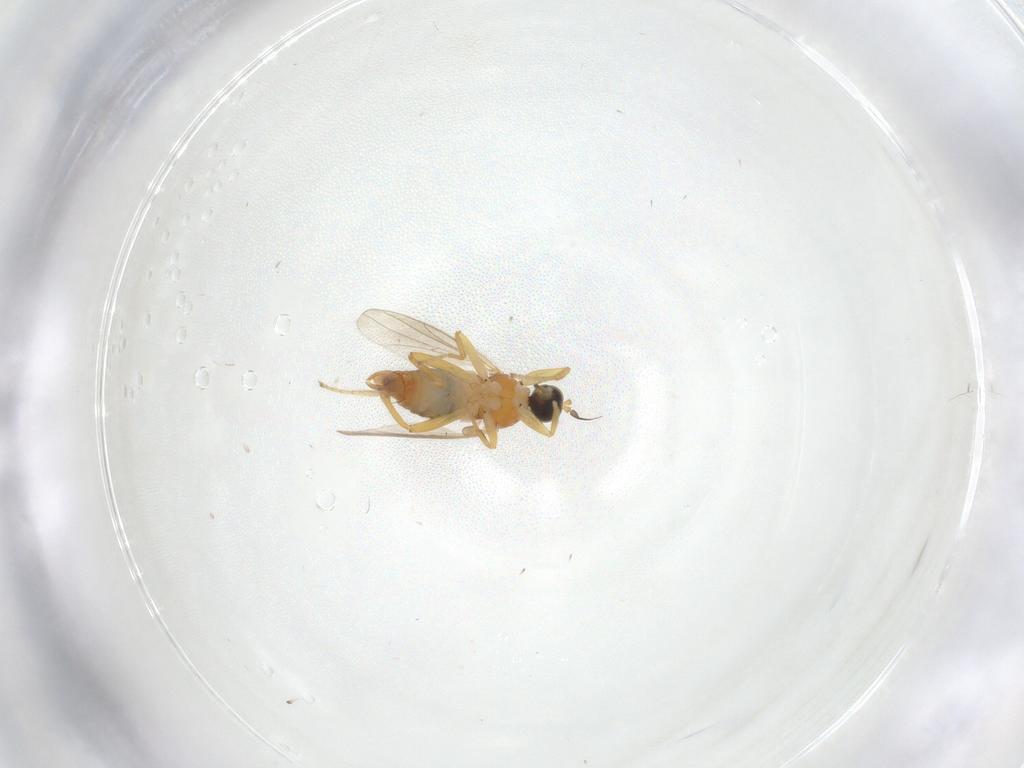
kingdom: Animalia
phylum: Arthropoda
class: Insecta
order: Diptera
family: Hybotidae
